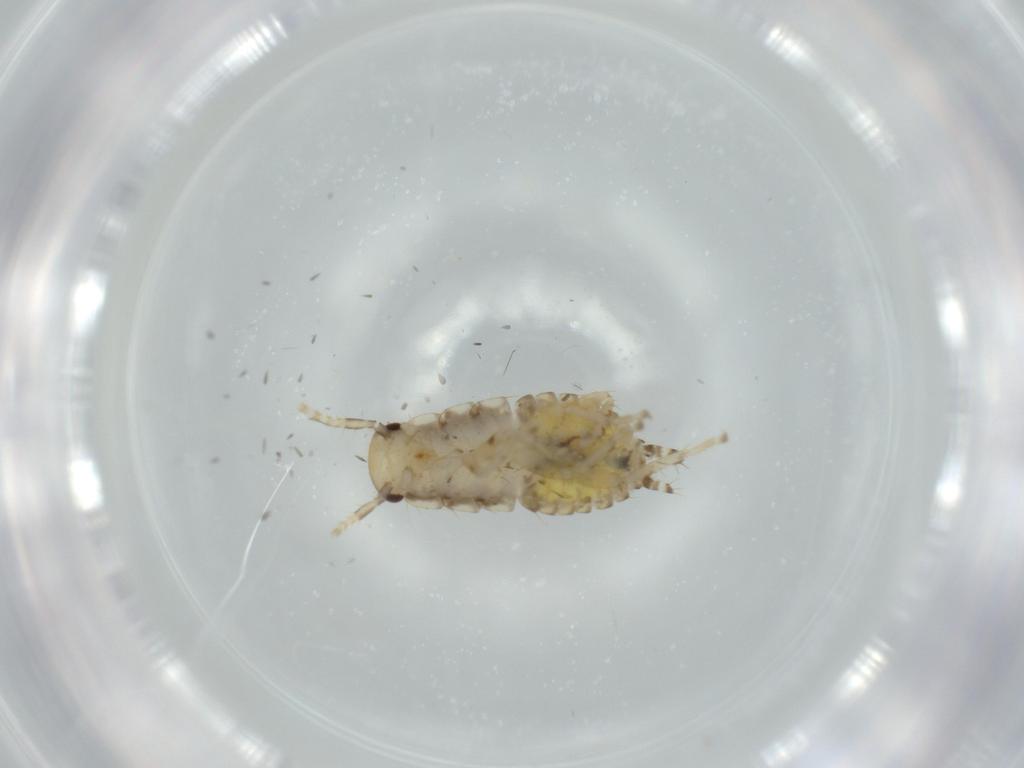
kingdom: Animalia
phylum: Arthropoda
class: Insecta
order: Blattodea
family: Ectobiidae
